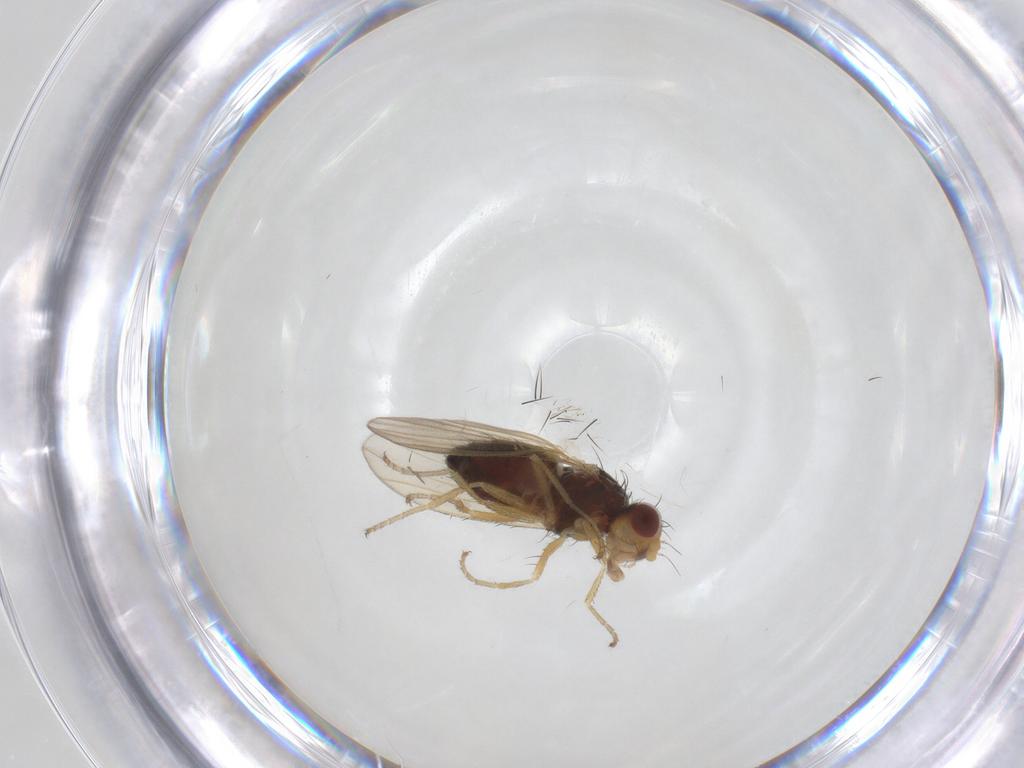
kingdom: Animalia
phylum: Arthropoda
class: Insecta
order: Diptera
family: Heleomyzidae
